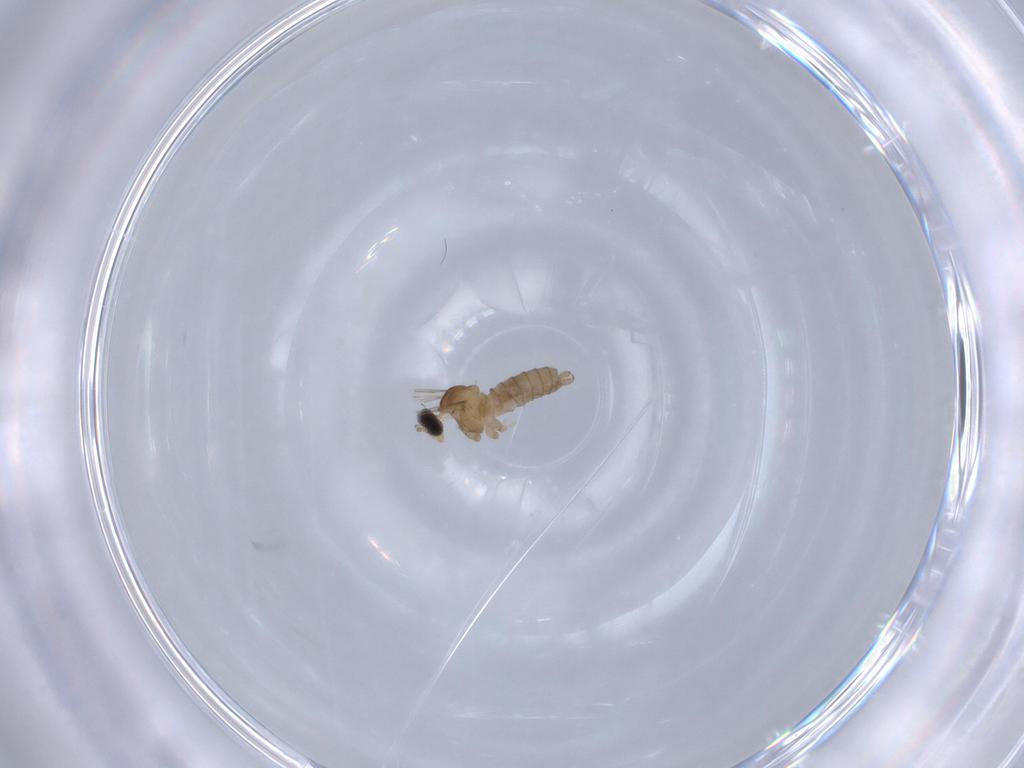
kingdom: Animalia
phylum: Arthropoda
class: Insecta
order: Diptera
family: Cecidomyiidae
